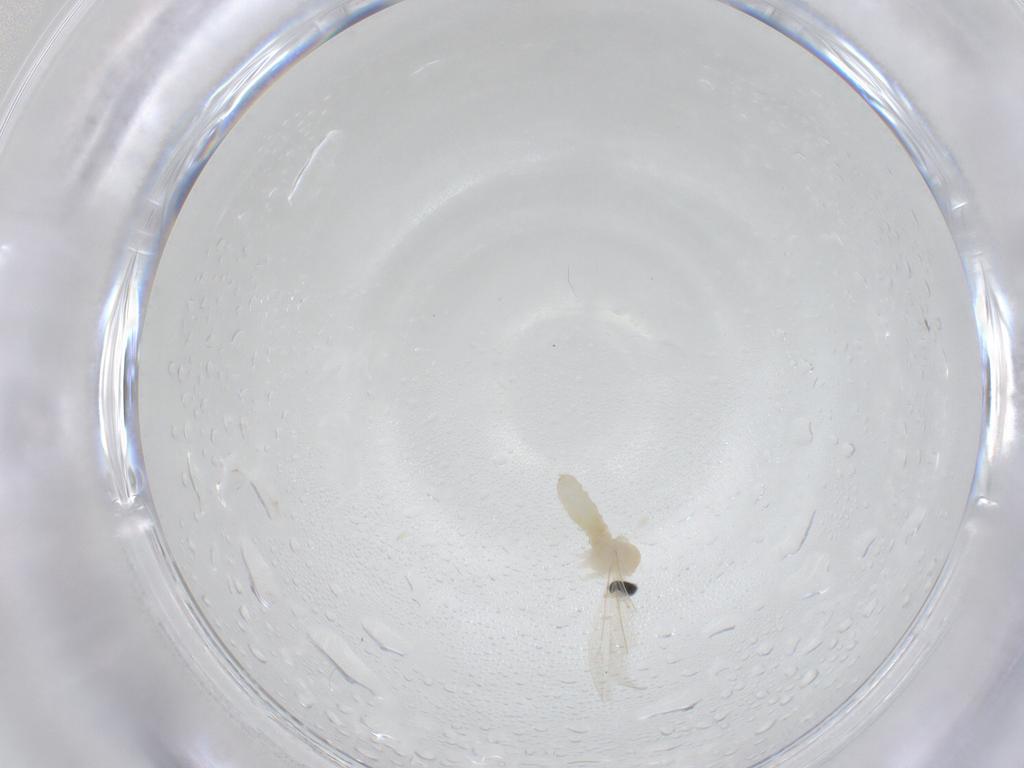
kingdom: Animalia
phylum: Arthropoda
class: Insecta
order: Diptera
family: Cecidomyiidae
